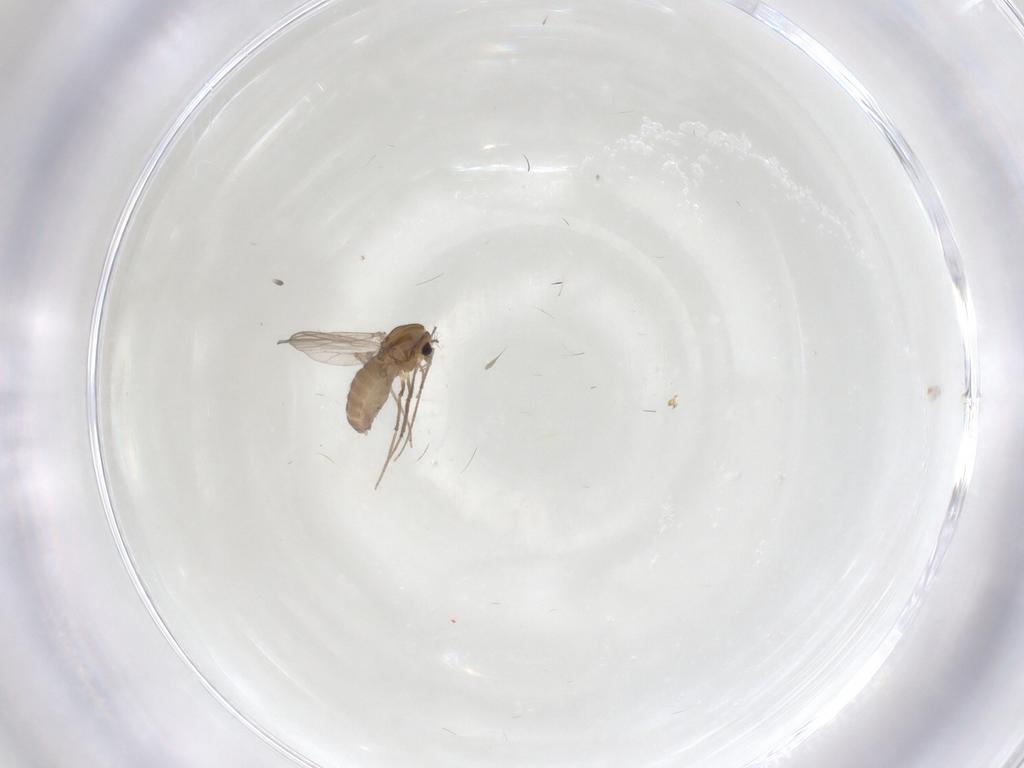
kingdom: Animalia
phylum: Arthropoda
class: Insecta
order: Diptera
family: Chironomidae
